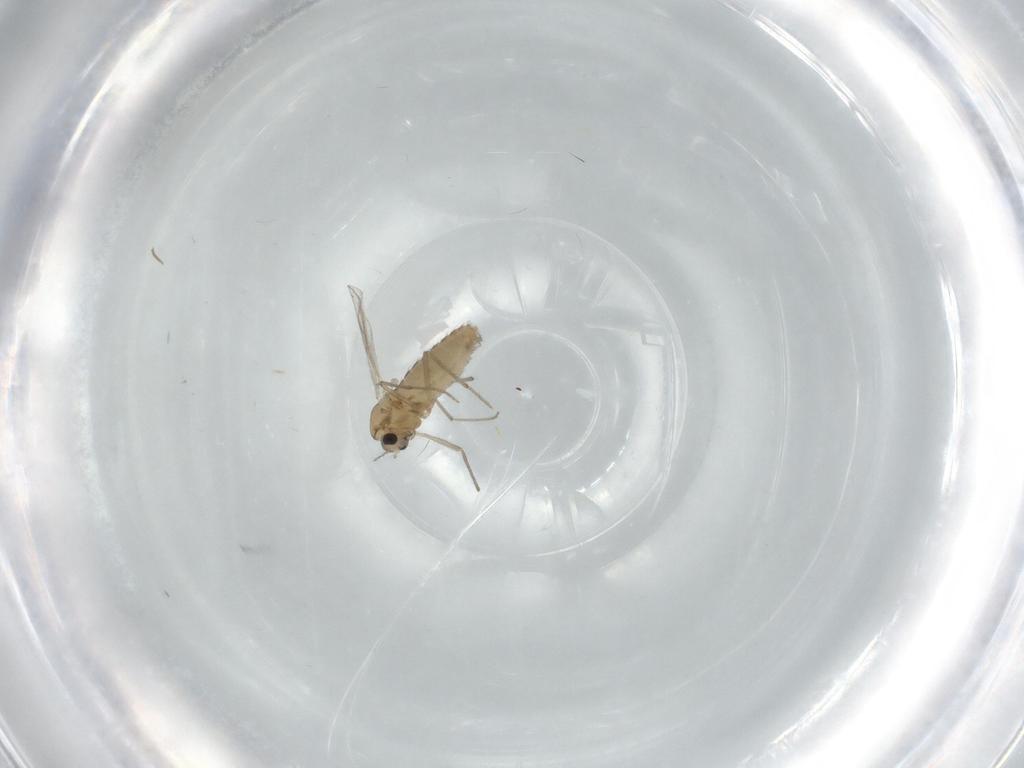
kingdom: Animalia
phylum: Arthropoda
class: Insecta
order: Diptera
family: Chironomidae
